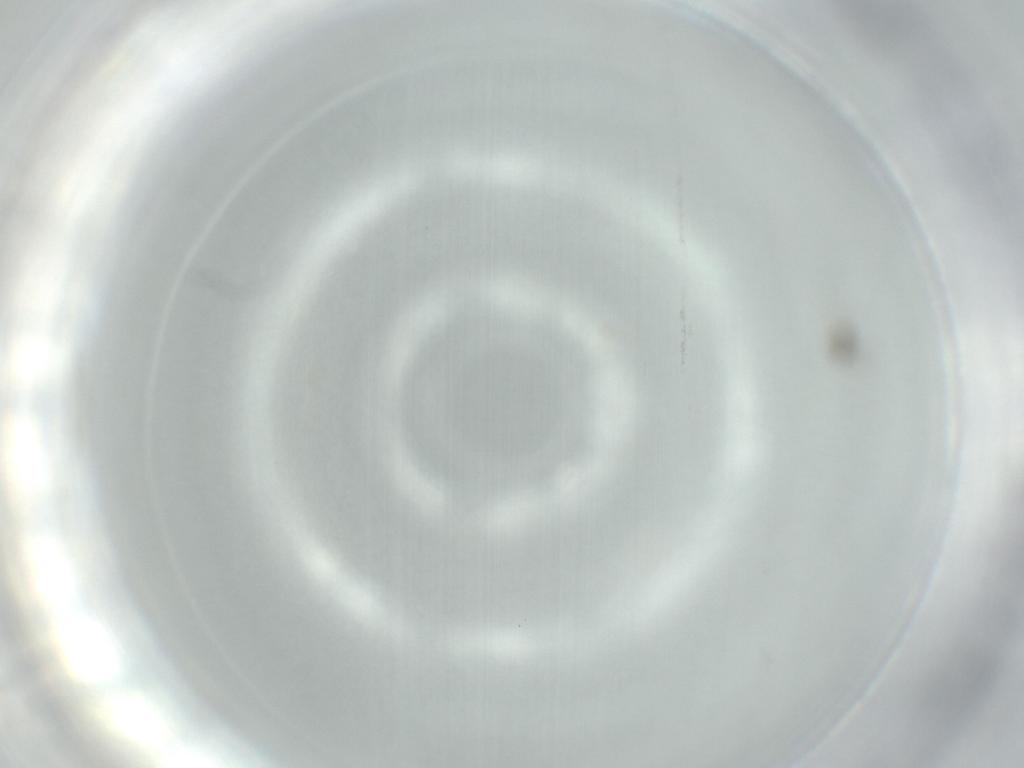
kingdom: Animalia
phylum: Arthropoda
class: Insecta
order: Coleoptera
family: Staphylinidae
